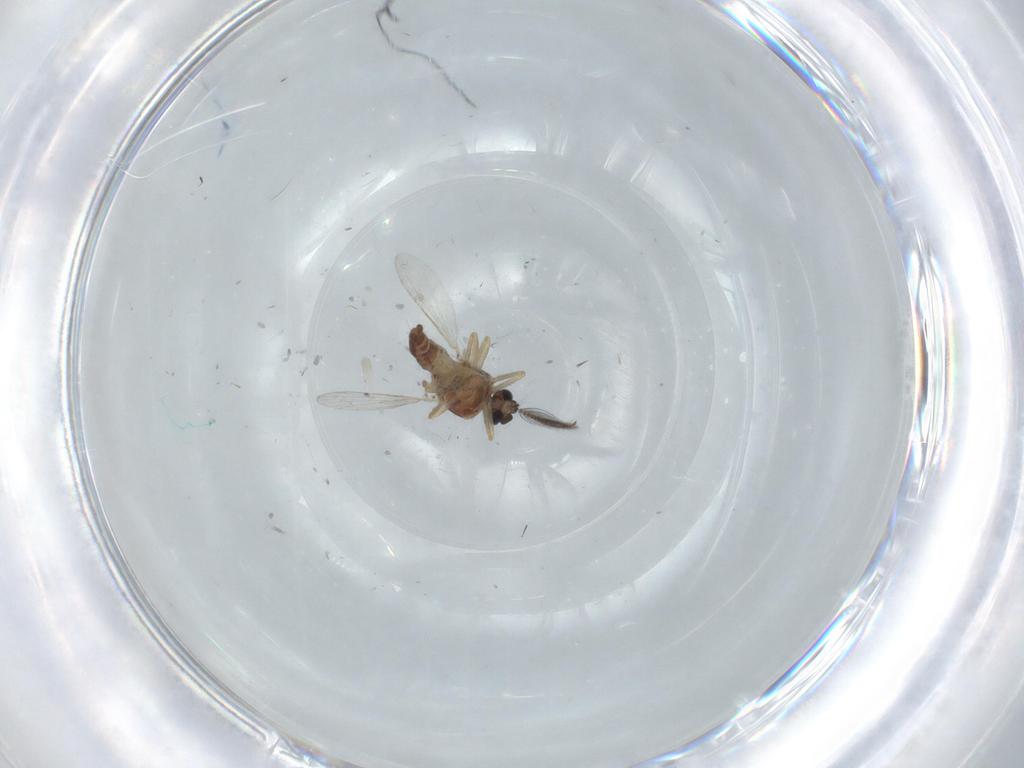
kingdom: Animalia
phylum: Arthropoda
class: Insecta
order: Diptera
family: Ceratopogonidae
